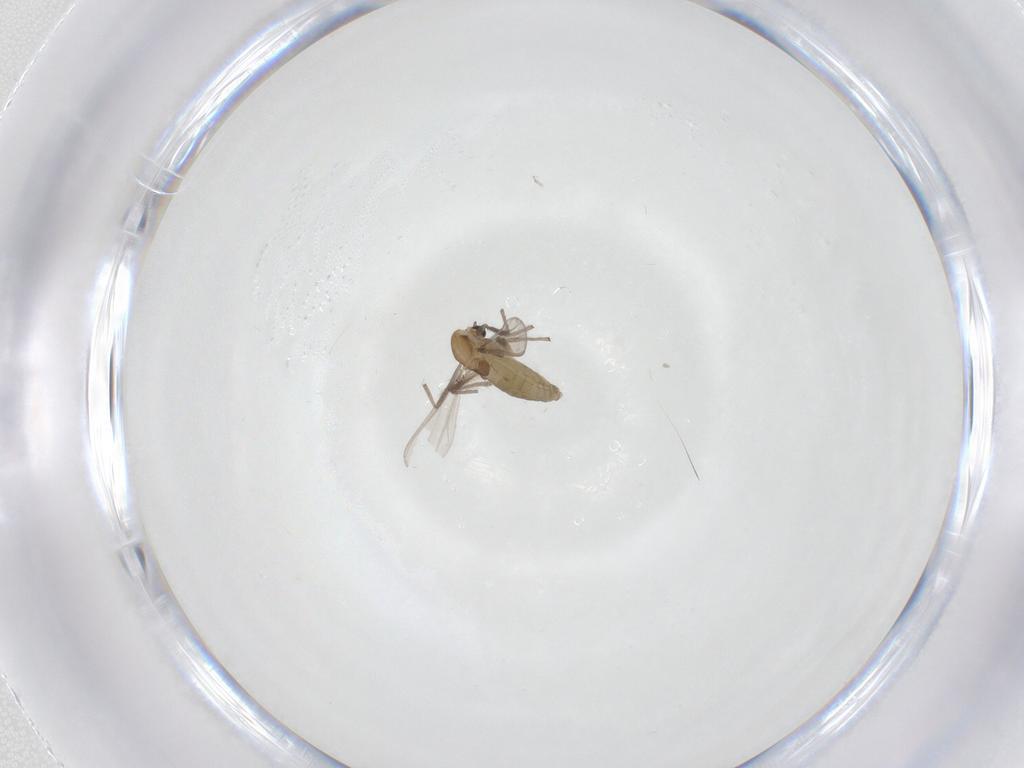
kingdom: Animalia
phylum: Arthropoda
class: Insecta
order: Diptera
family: Chironomidae
